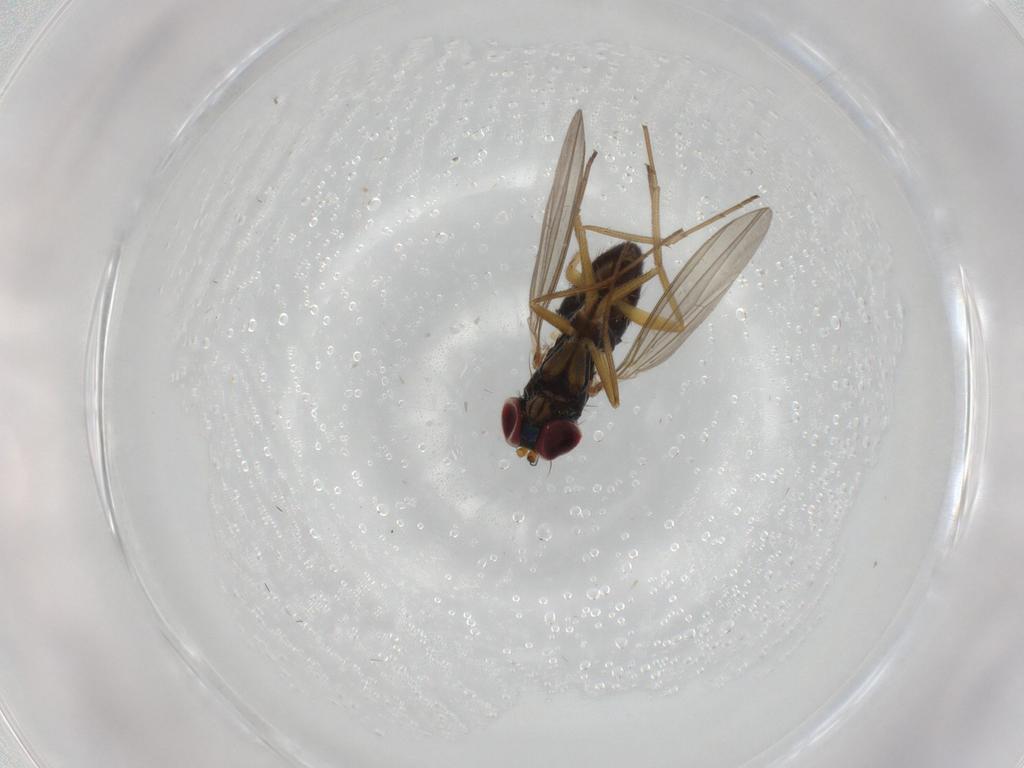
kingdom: Animalia
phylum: Arthropoda
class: Insecta
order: Diptera
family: Dolichopodidae
